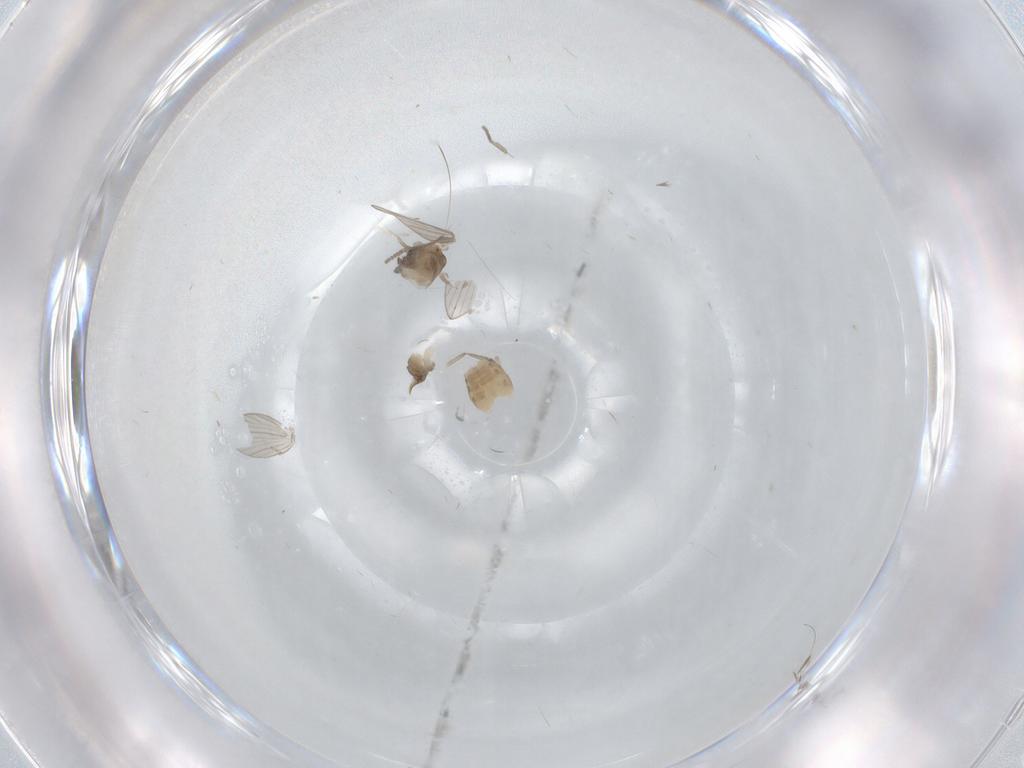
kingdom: Animalia
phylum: Arthropoda
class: Insecta
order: Diptera
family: Psychodidae
